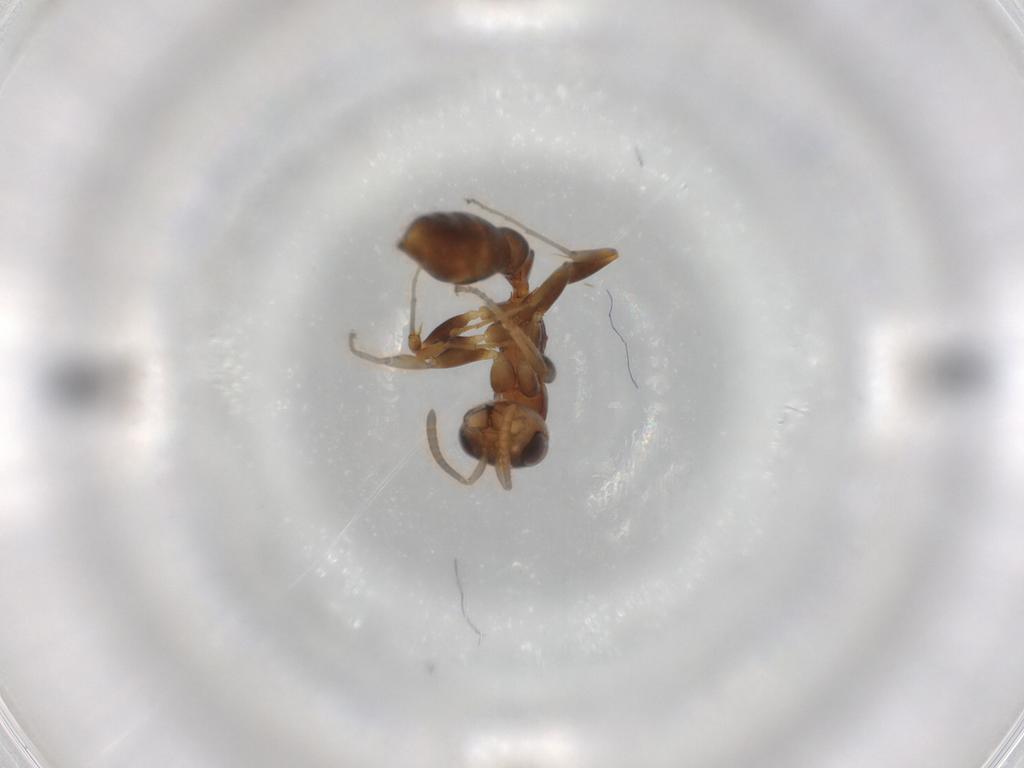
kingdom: Animalia
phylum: Arthropoda
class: Insecta
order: Hymenoptera
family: Formicidae
